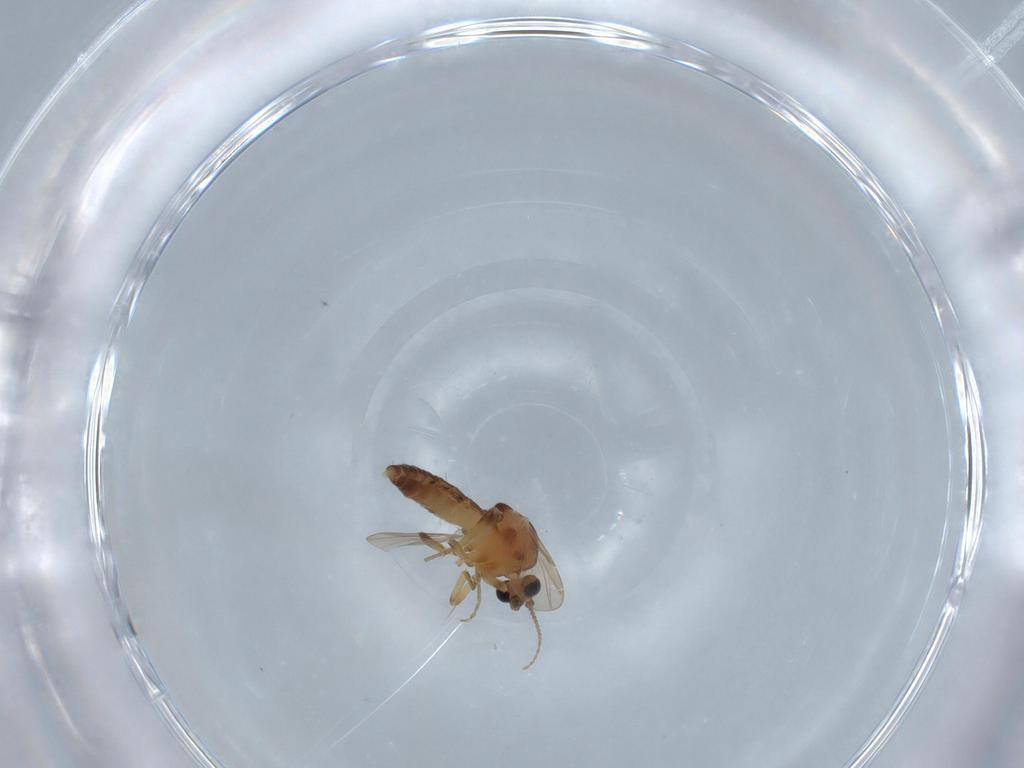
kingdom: Animalia
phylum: Arthropoda
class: Insecta
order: Diptera
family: Ceratopogonidae
